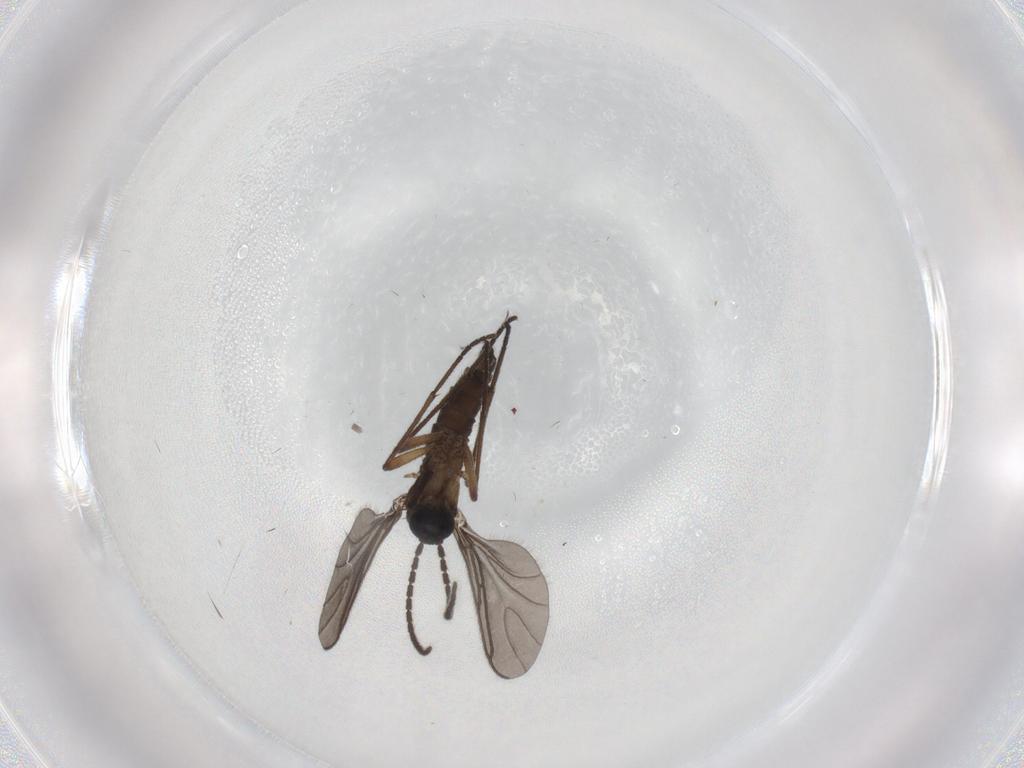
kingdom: Animalia
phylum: Arthropoda
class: Insecta
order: Diptera
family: Sciaridae
